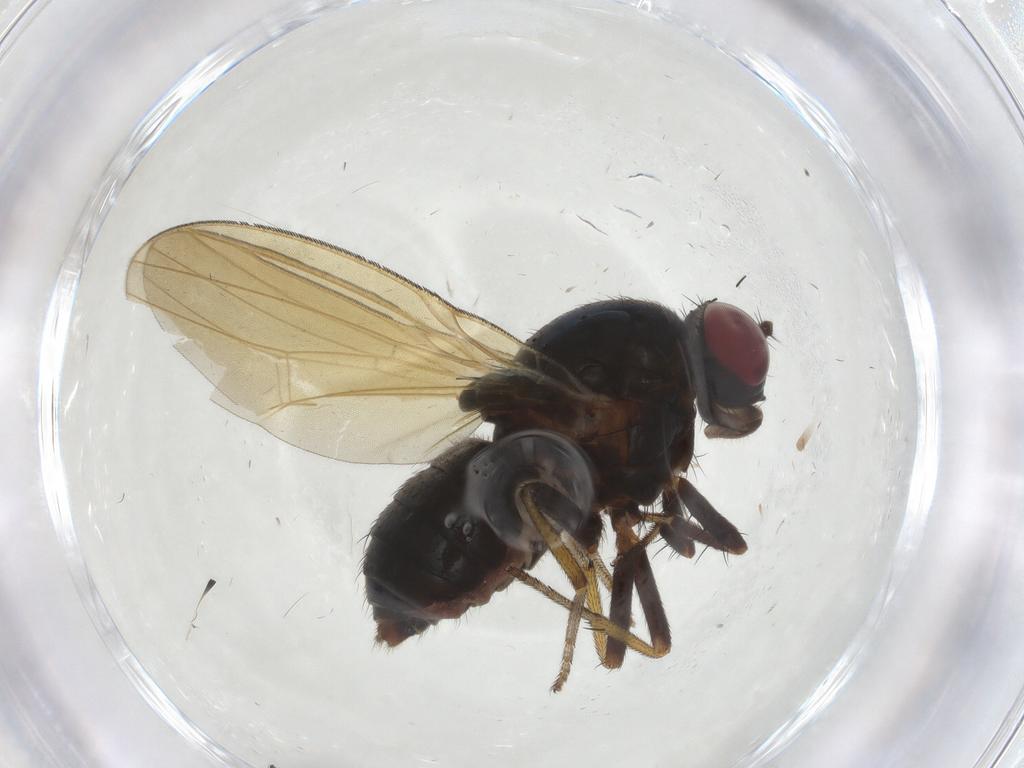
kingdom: Animalia
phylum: Arthropoda
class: Insecta
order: Diptera
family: Sciaridae
